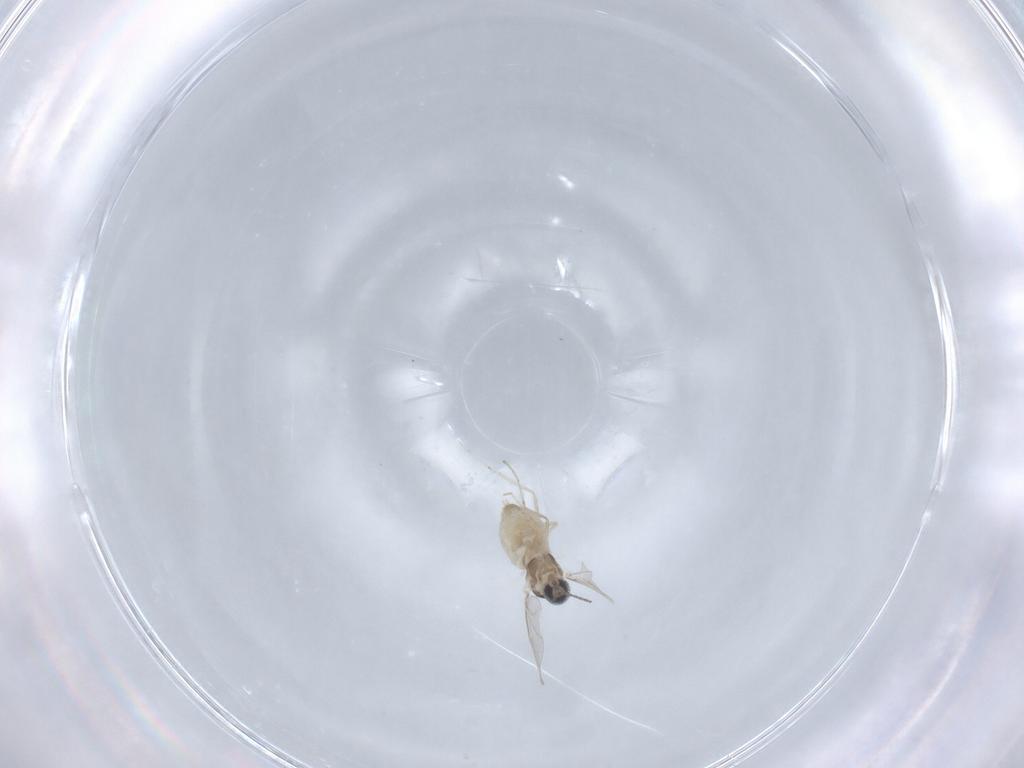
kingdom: Animalia
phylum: Arthropoda
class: Insecta
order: Diptera
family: Cecidomyiidae
